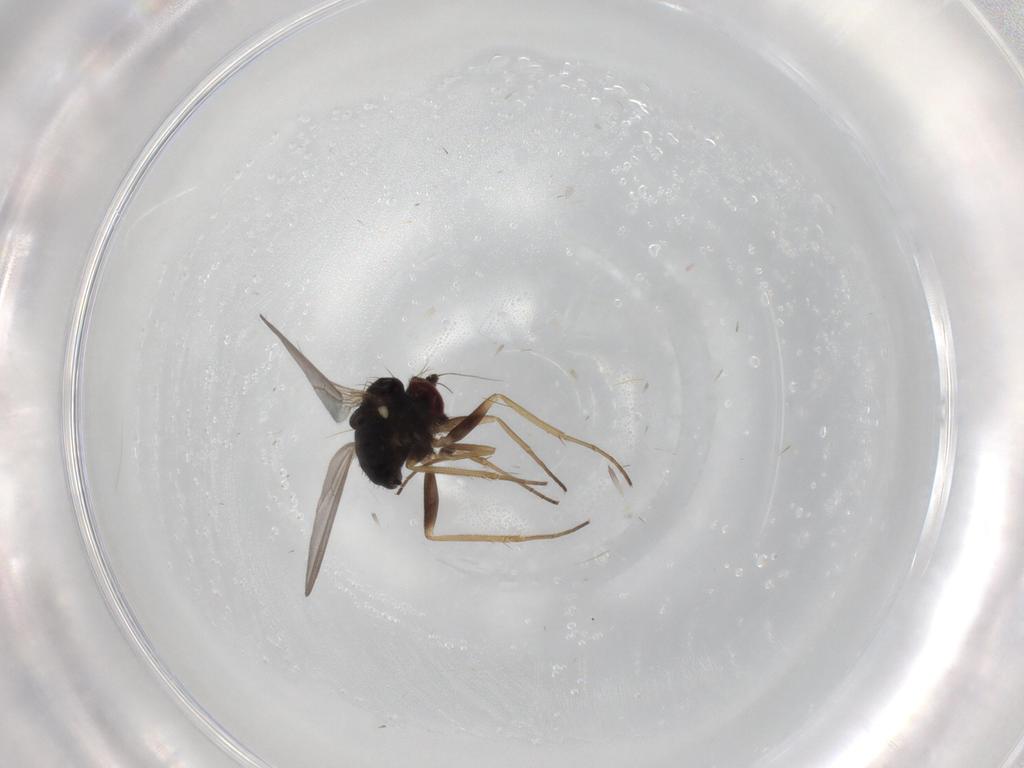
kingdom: Animalia
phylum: Arthropoda
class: Insecta
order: Diptera
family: Dolichopodidae
